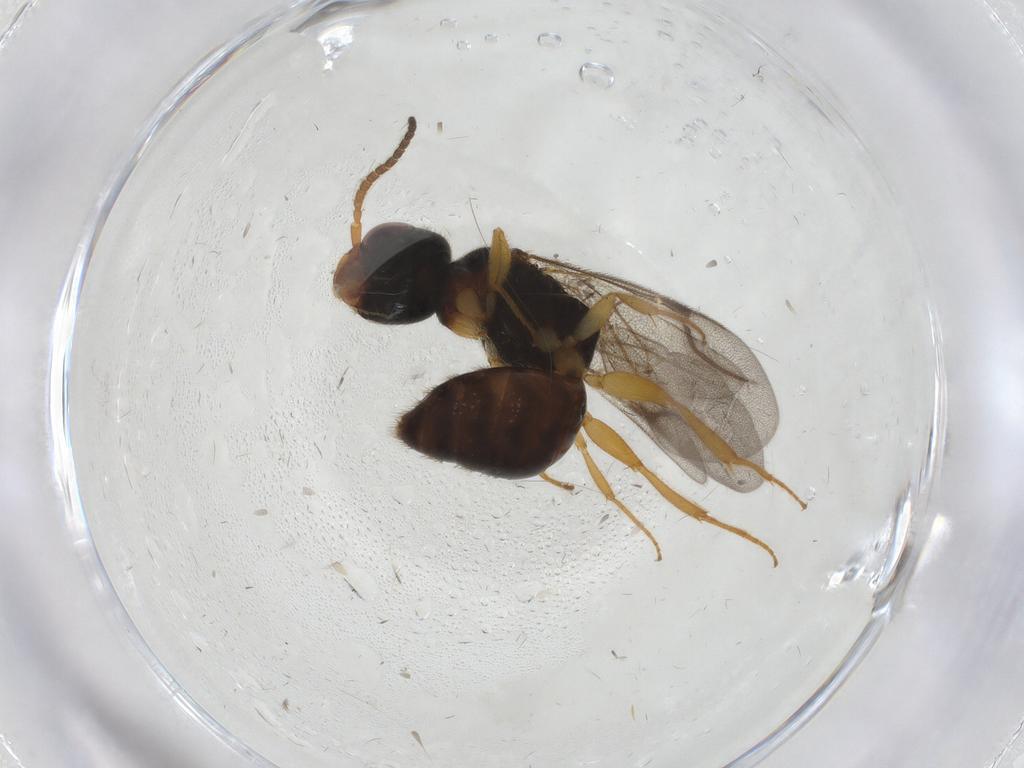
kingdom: Animalia
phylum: Arthropoda
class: Insecta
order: Hymenoptera
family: Bethylidae
